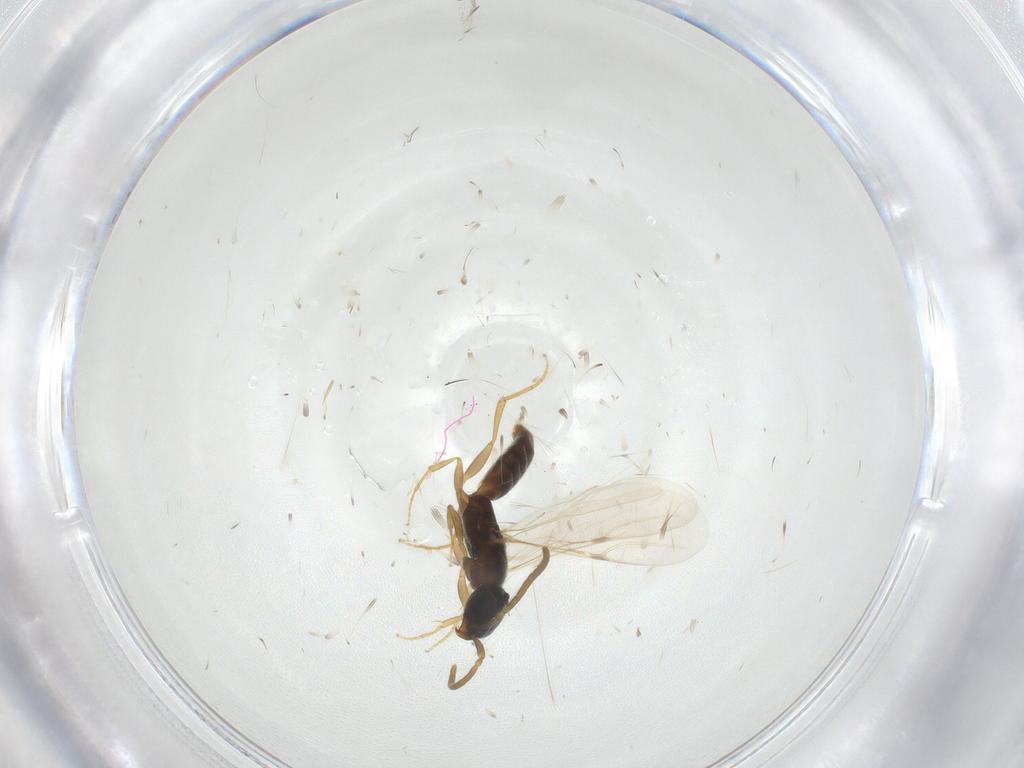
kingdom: Animalia
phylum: Arthropoda
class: Insecta
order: Hymenoptera
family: Bethylidae
